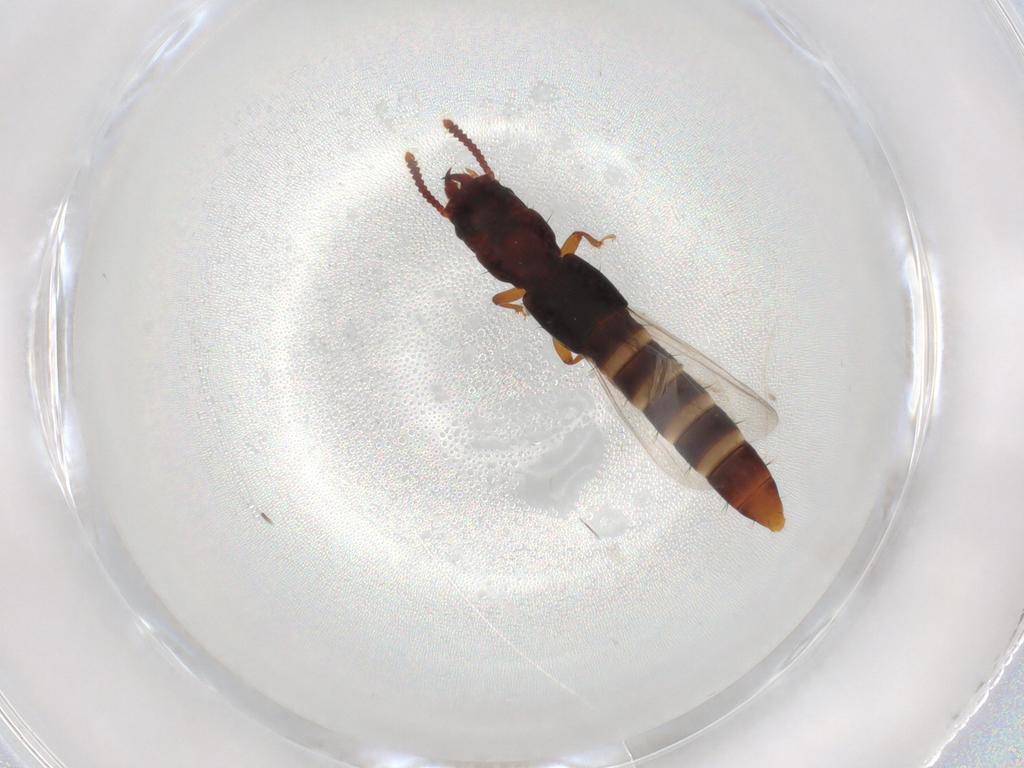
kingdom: Animalia
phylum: Arthropoda
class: Insecta
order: Coleoptera
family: Staphylinidae
